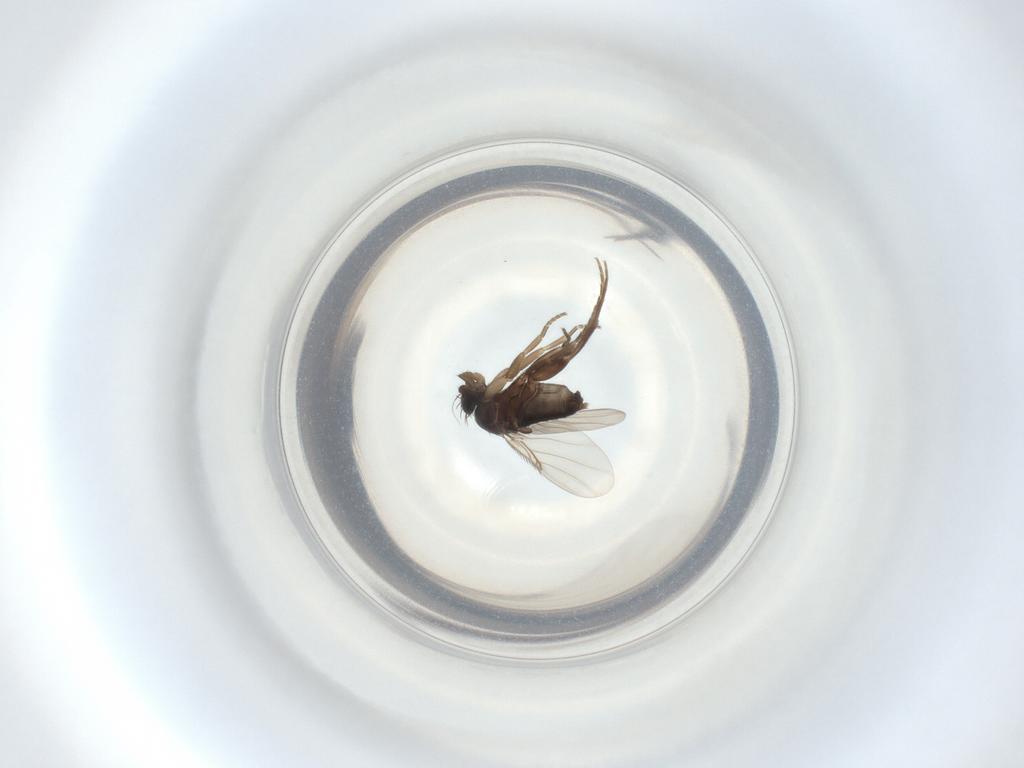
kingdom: Animalia
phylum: Arthropoda
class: Insecta
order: Diptera
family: Phoridae
